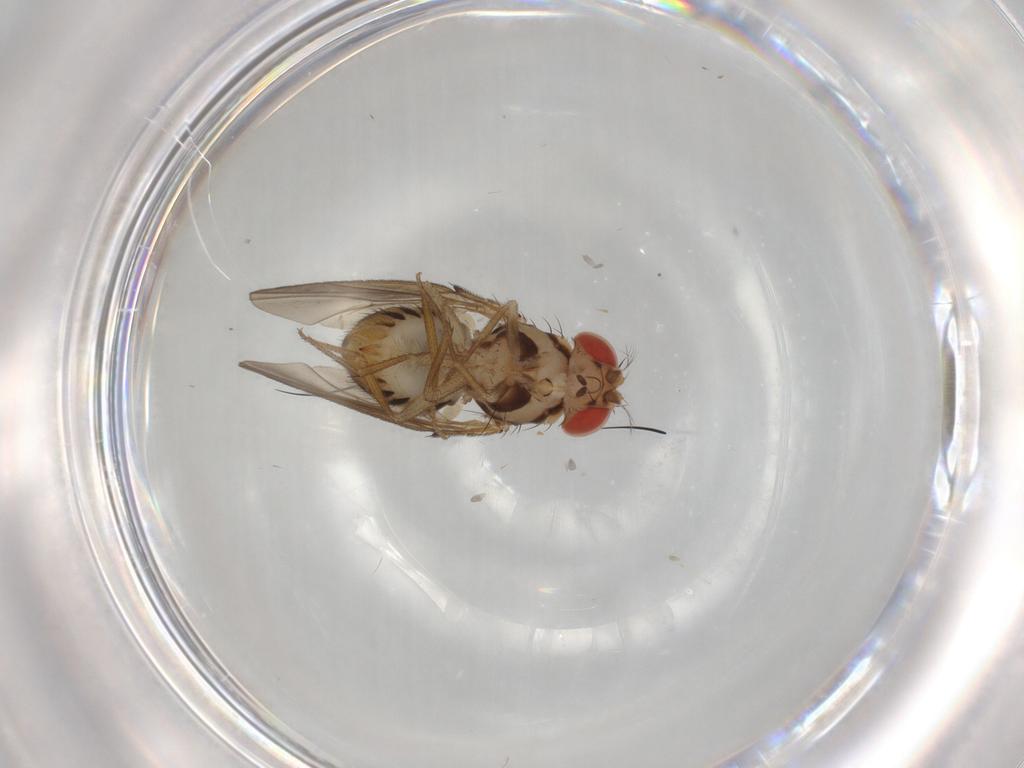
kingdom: Animalia
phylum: Arthropoda
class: Insecta
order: Diptera
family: Drosophilidae
